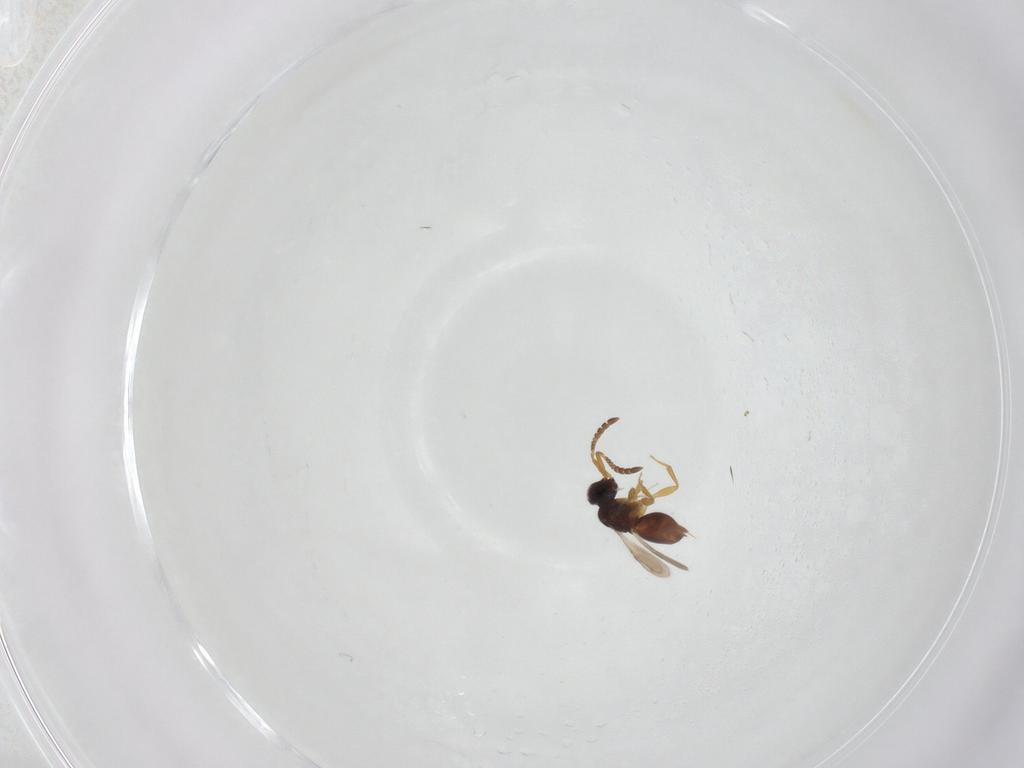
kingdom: Animalia
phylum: Arthropoda
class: Insecta
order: Hymenoptera
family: Formicidae
